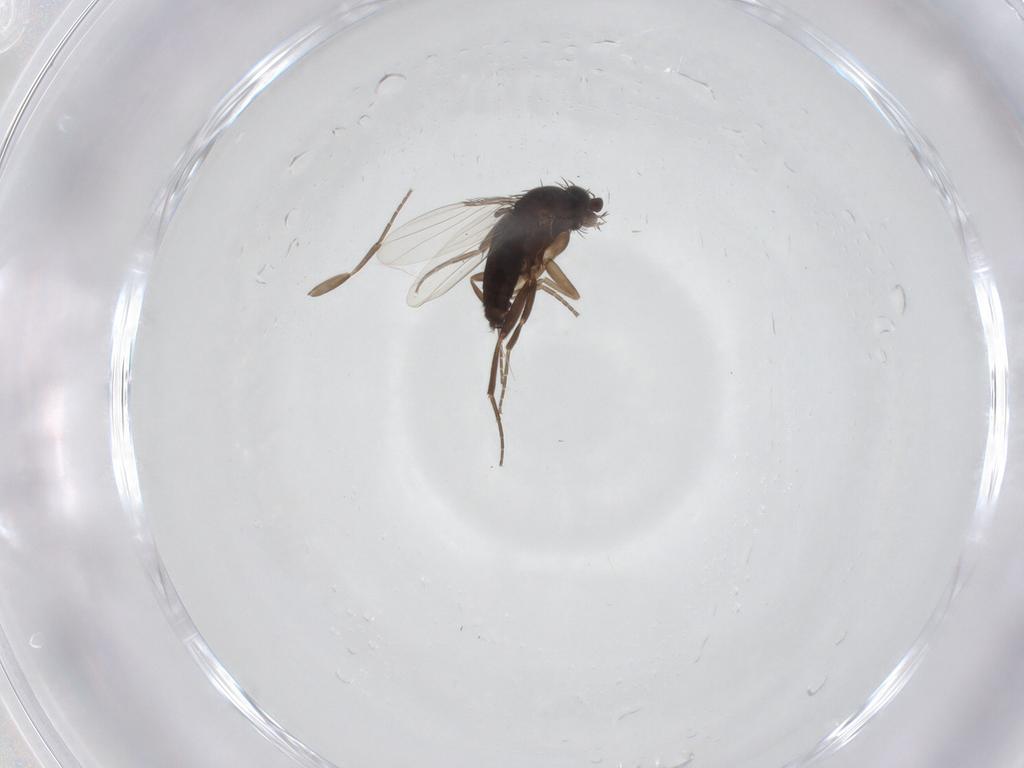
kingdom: Animalia
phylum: Arthropoda
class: Insecta
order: Diptera
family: Phoridae
